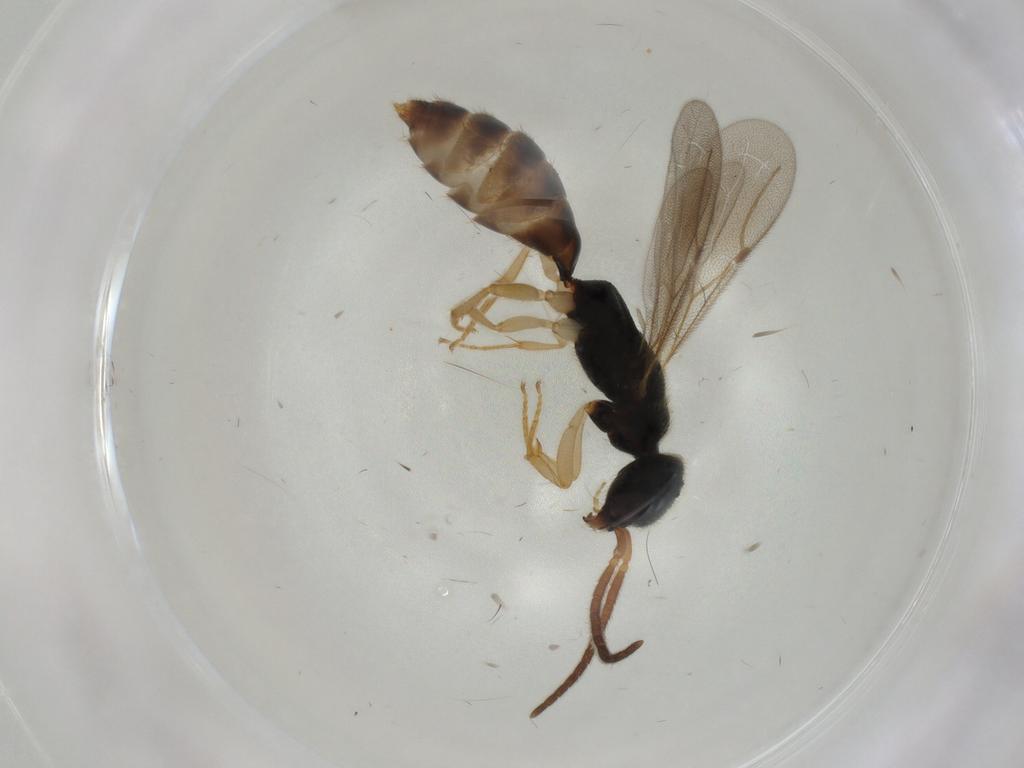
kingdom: Animalia
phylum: Arthropoda
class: Insecta
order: Hymenoptera
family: Bethylidae
